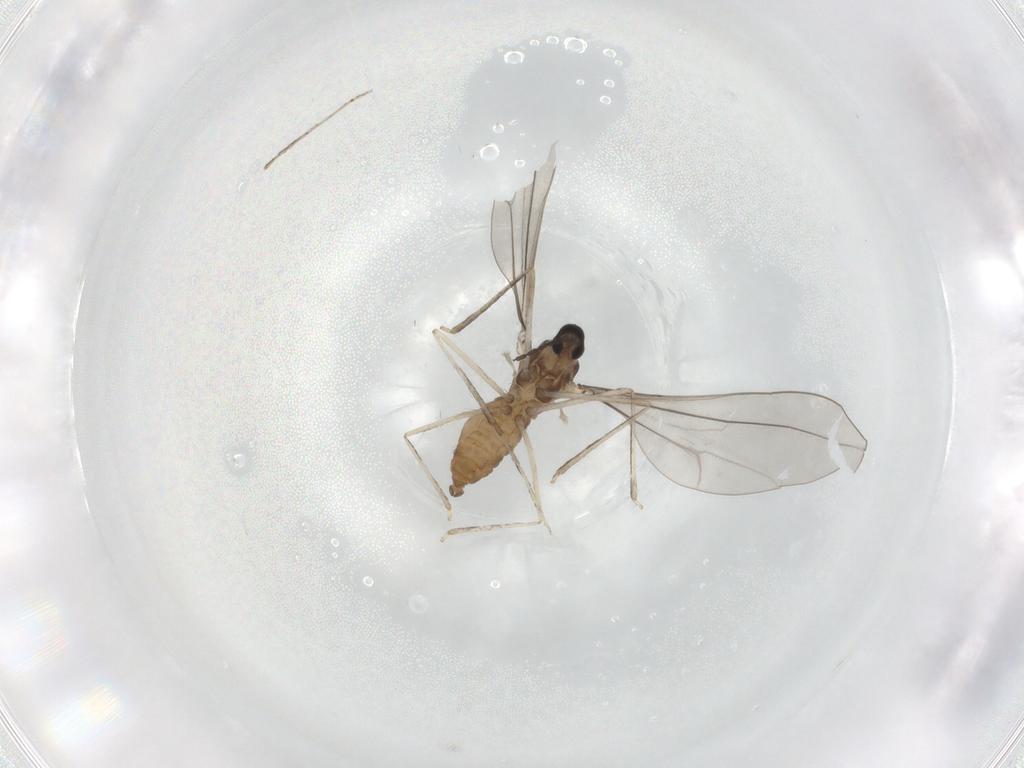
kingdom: Animalia
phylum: Arthropoda
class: Insecta
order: Diptera
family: Cecidomyiidae
